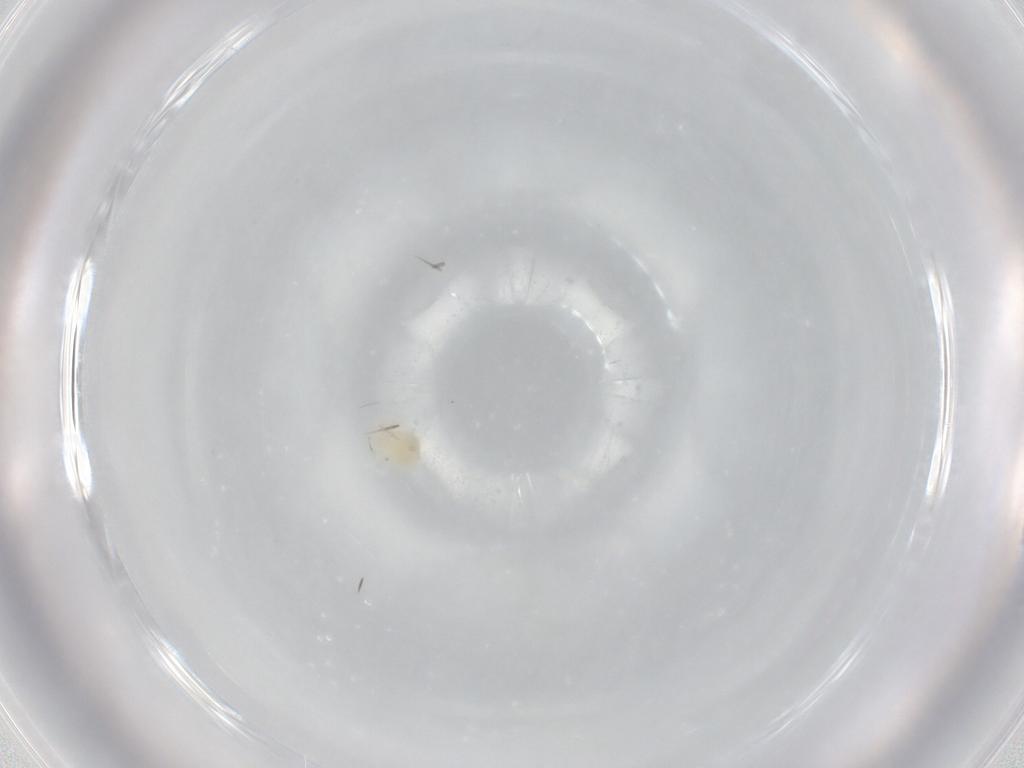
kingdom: Animalia
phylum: Arthropoda
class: Arachnida
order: Trombidiformes
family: Anystidae
